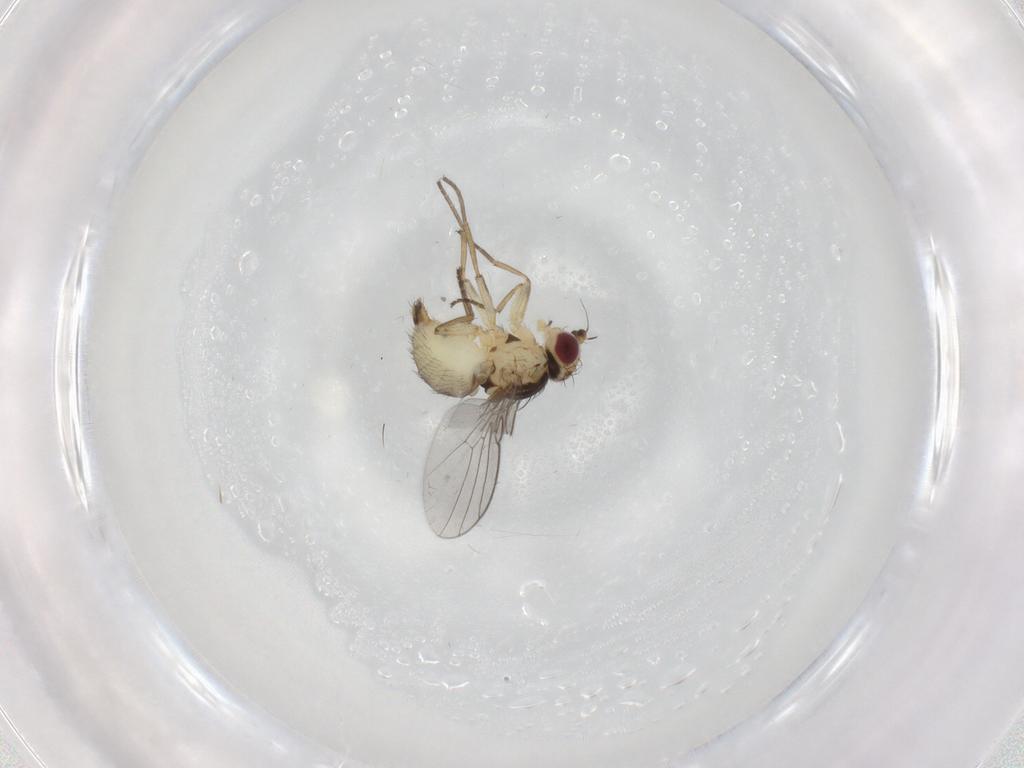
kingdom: Animalia
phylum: Arthropoda
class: Insecta
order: Diptera
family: Agromyzidae
